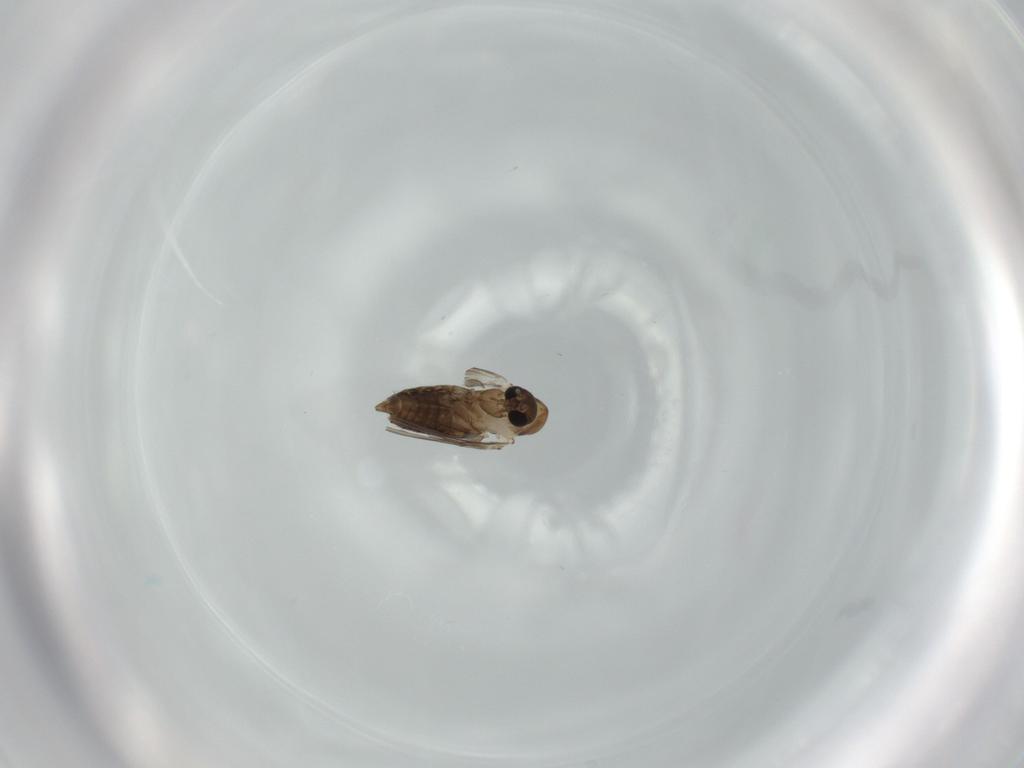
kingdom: Animalia
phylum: Arthropoda
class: Insecta
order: Diptera
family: Psychodidae
